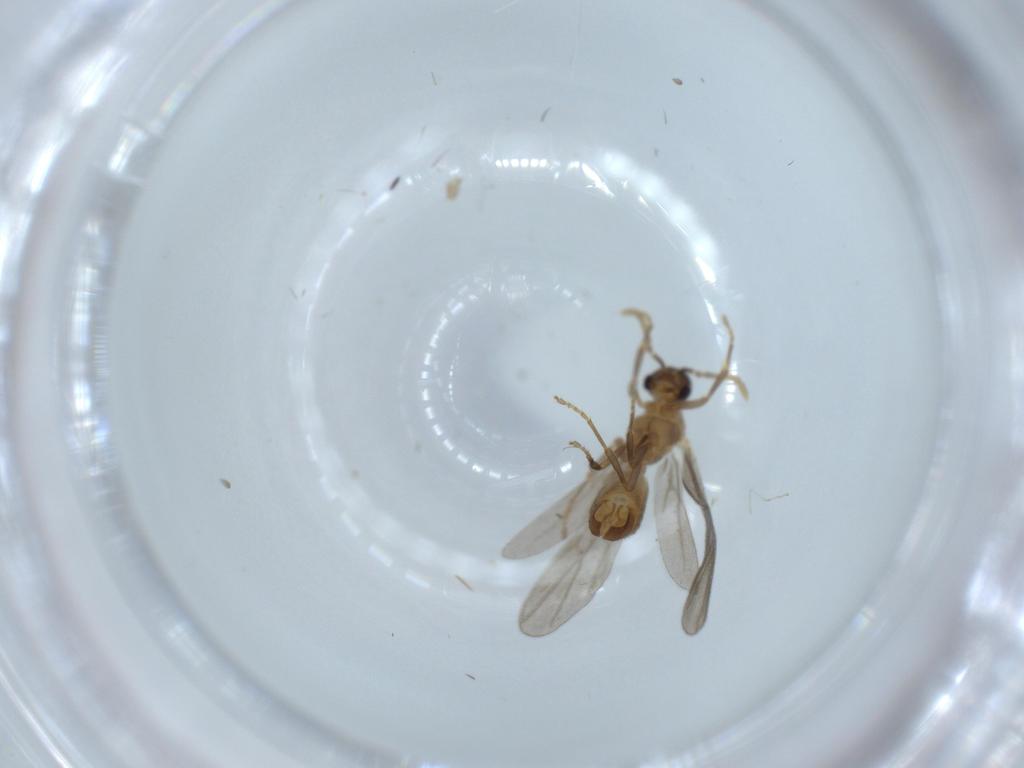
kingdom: Animalia
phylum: Arthropoda
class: Insecta
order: Hymenoptera
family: Formicidae
